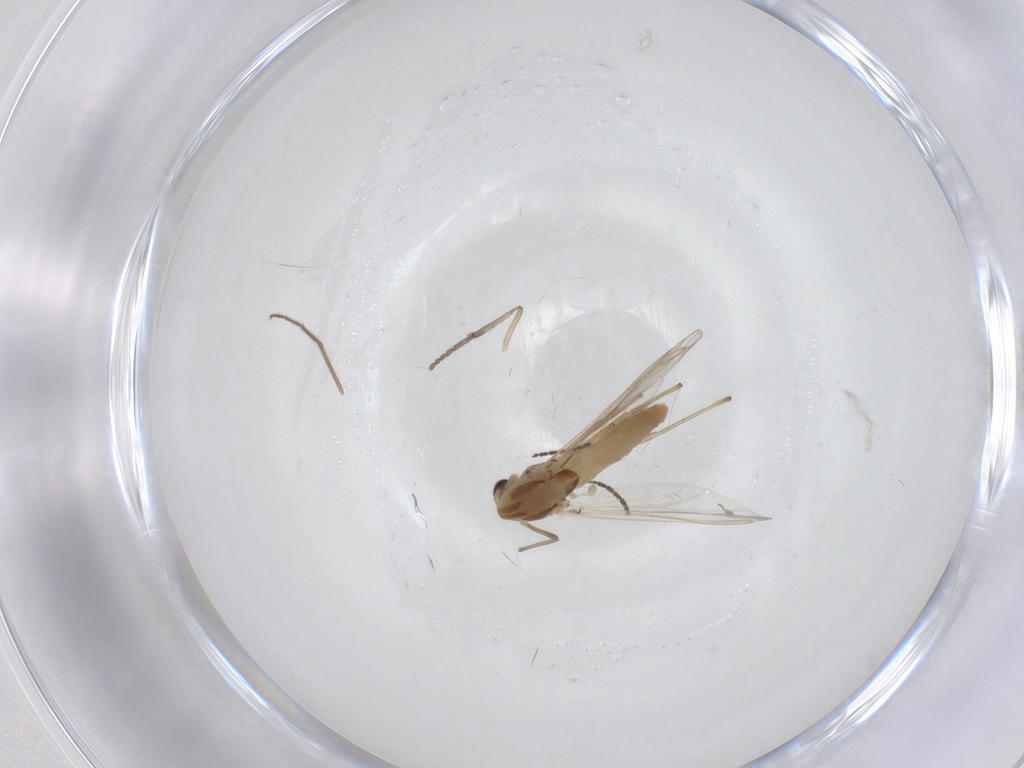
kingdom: Animalia
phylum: Arthropoda
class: Insecta
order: Diptera
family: Chironomidae
